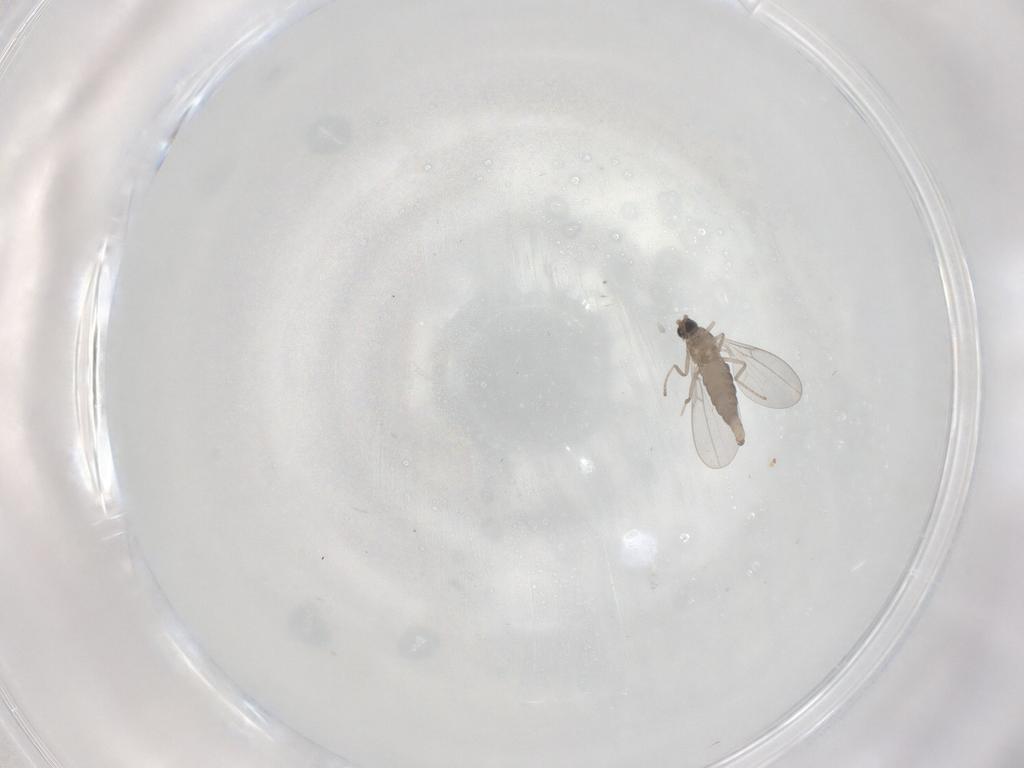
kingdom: Animalia
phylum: Arthropoda
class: Insecta
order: Diptera
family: Cecidomyiidae
